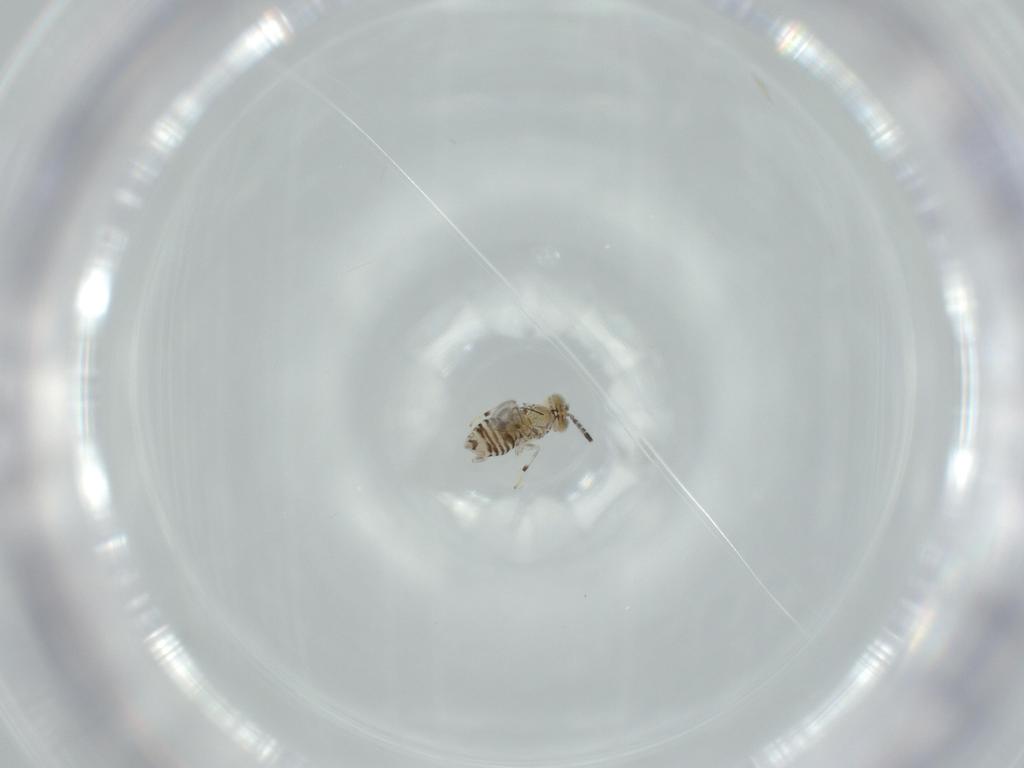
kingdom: Animalia
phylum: Arthropoda
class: Insecta
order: Hymenoptera
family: Aphelinidae
